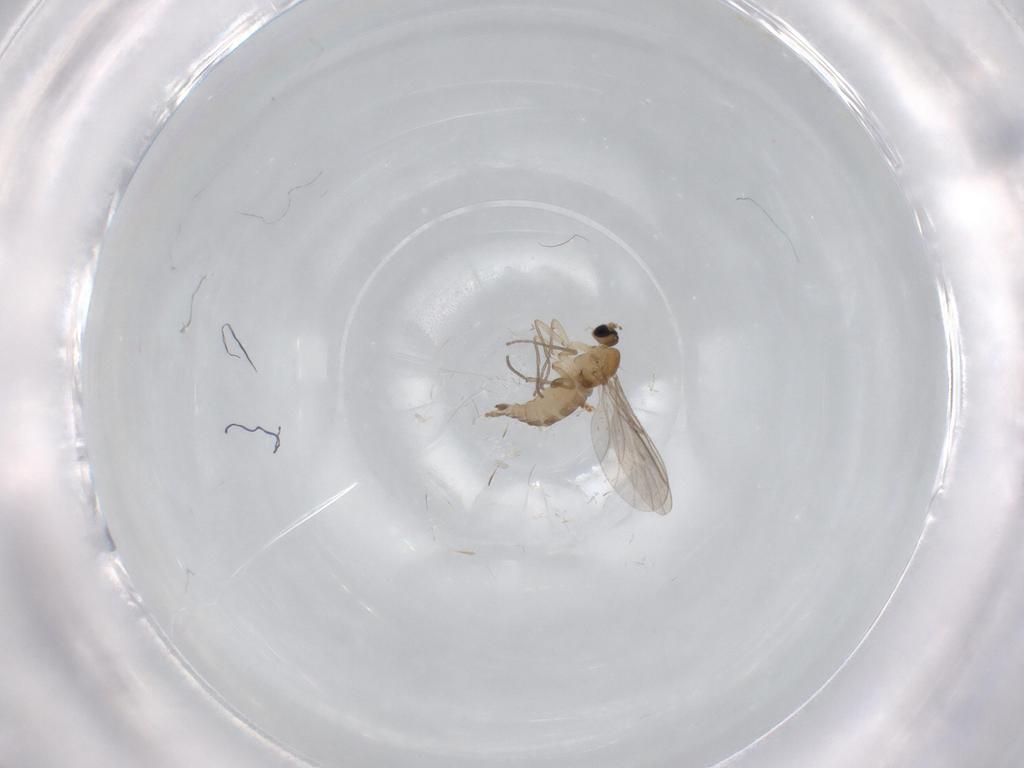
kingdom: Animalia
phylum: Arthropoda
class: Insecta
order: Diptera
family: Sciaridae
